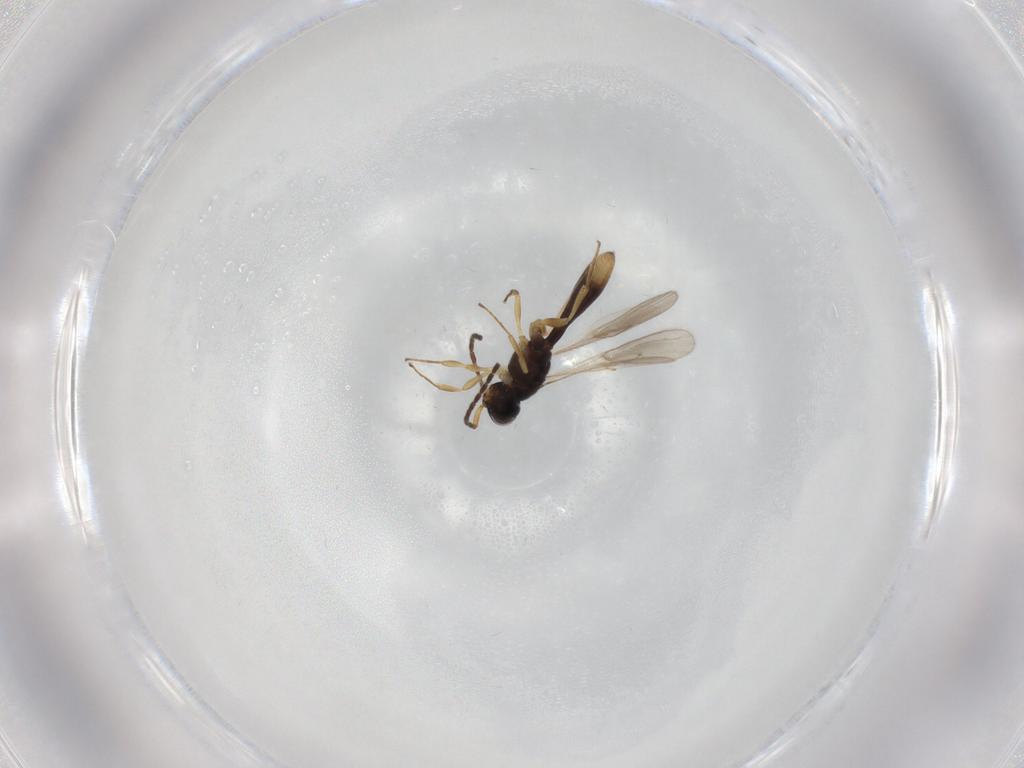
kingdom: Animalia
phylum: Arthropoda
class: Insecta
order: Hymenoptera
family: Scelionidae
